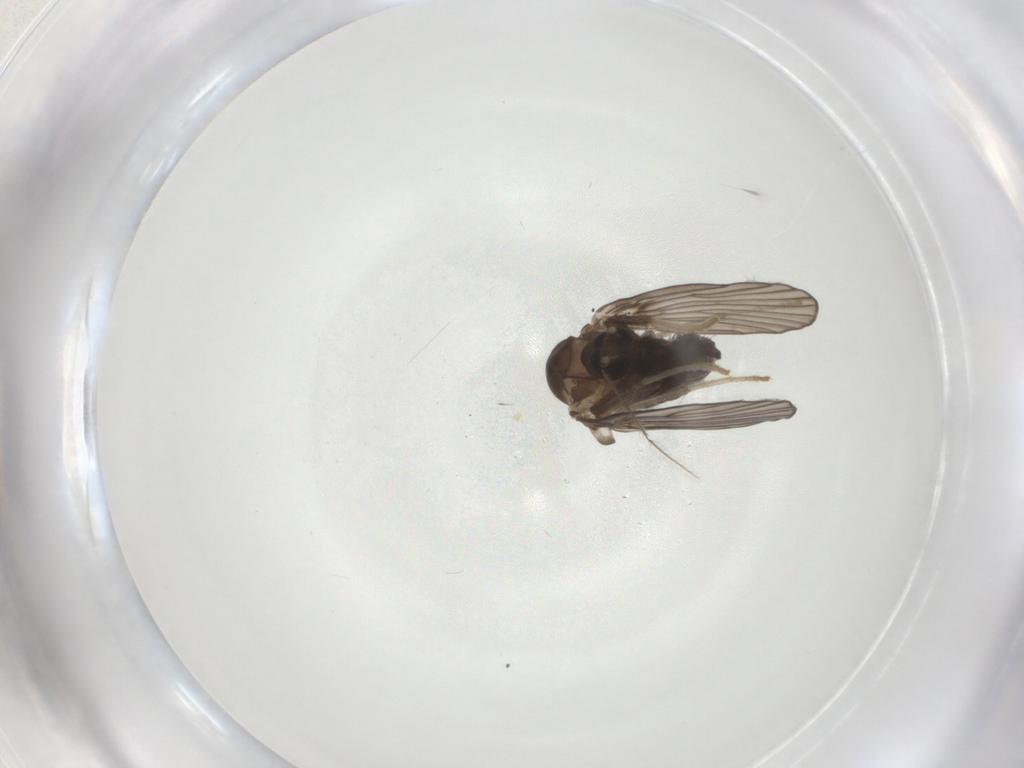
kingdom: Animalia
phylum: Arthropoda
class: Insecta
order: Diptera
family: Psychodidae
